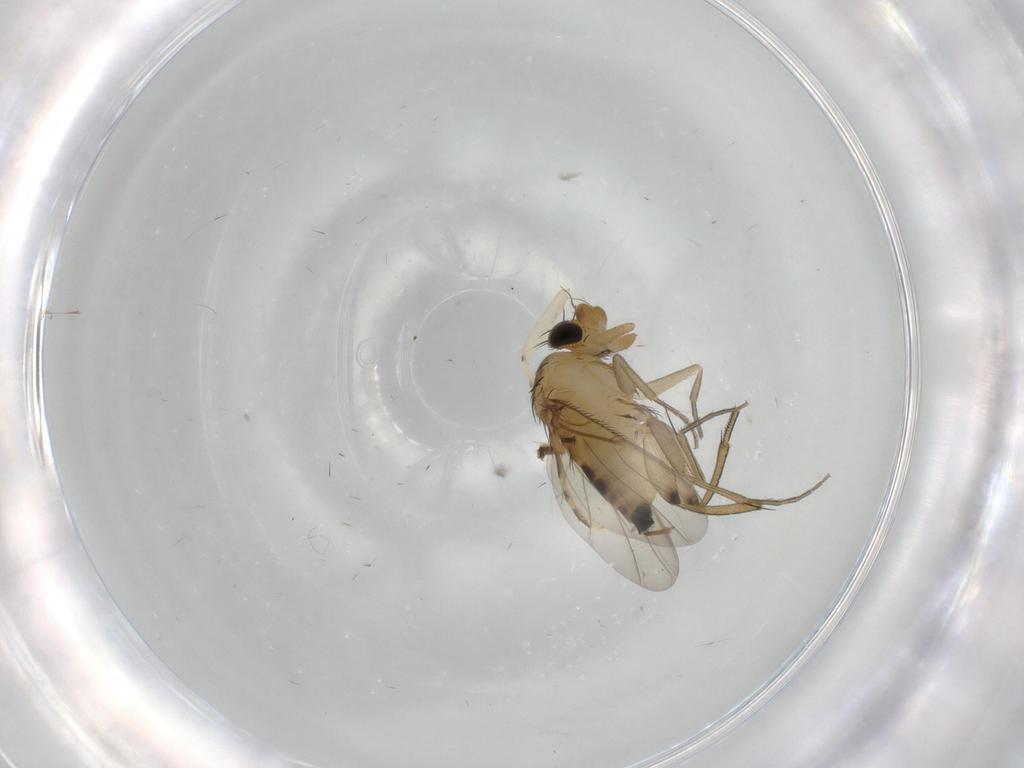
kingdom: Animalia
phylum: Arthropoda
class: Insecta
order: Diptera
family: Phoridae
